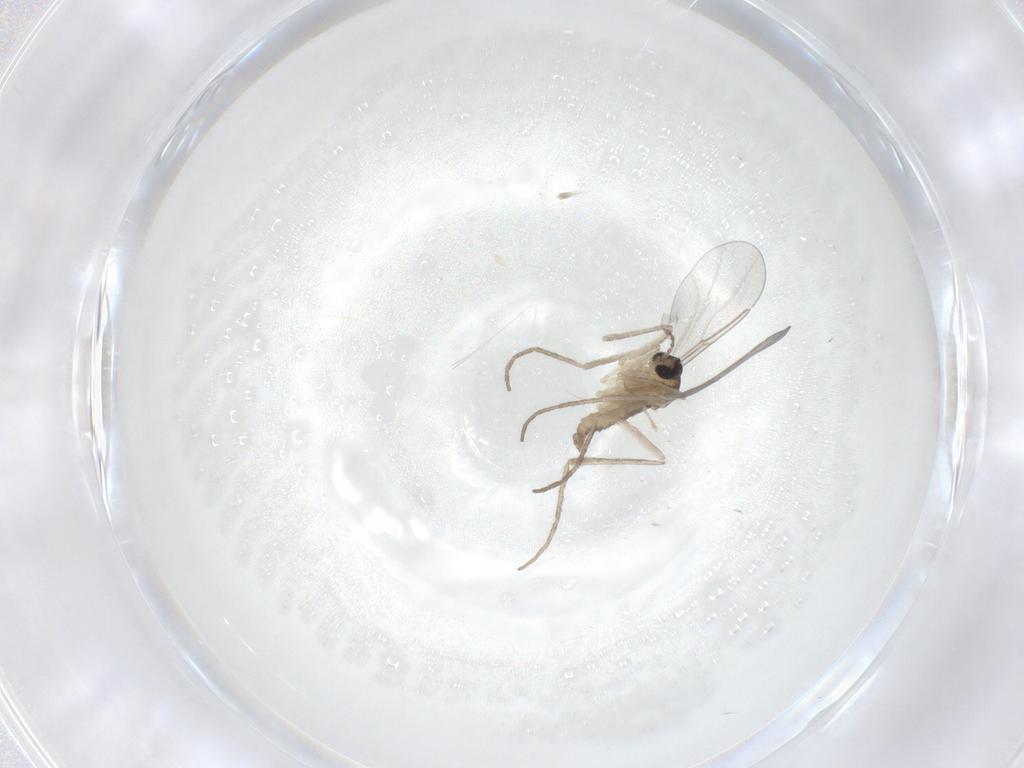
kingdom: Animalia
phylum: Arthropoda
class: Insecta
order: Diptera
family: Cecidomyiidae
